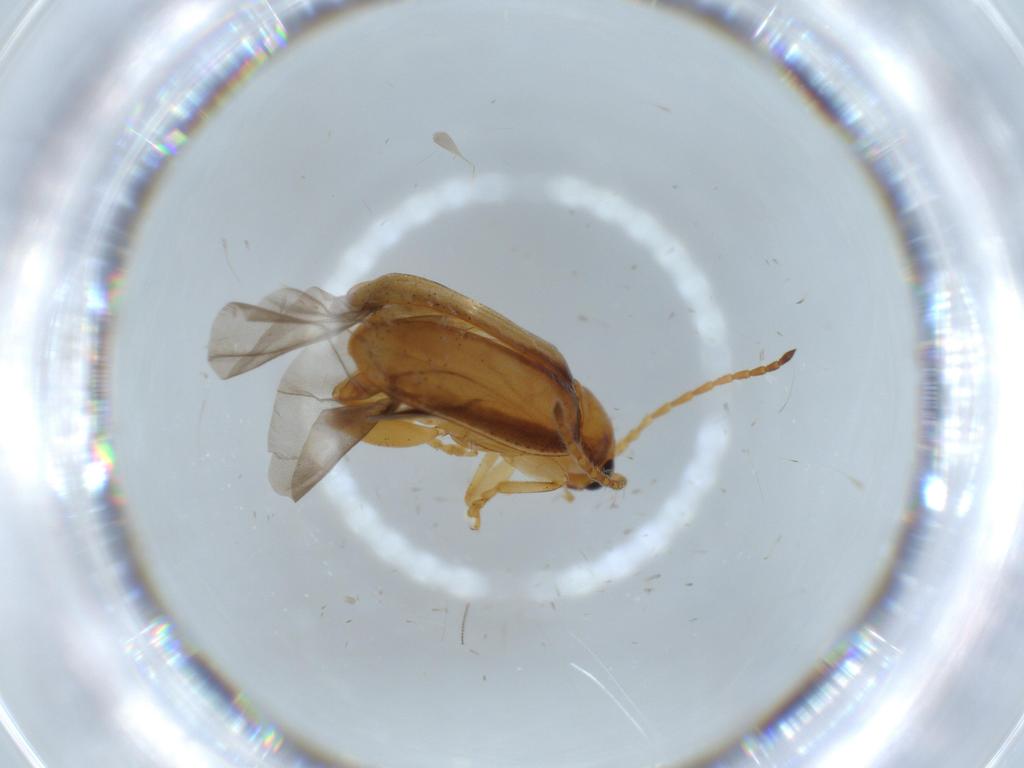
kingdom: Animalia
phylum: Arthropoda
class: Insecta
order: Coleoptera
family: Chrysomelidae
